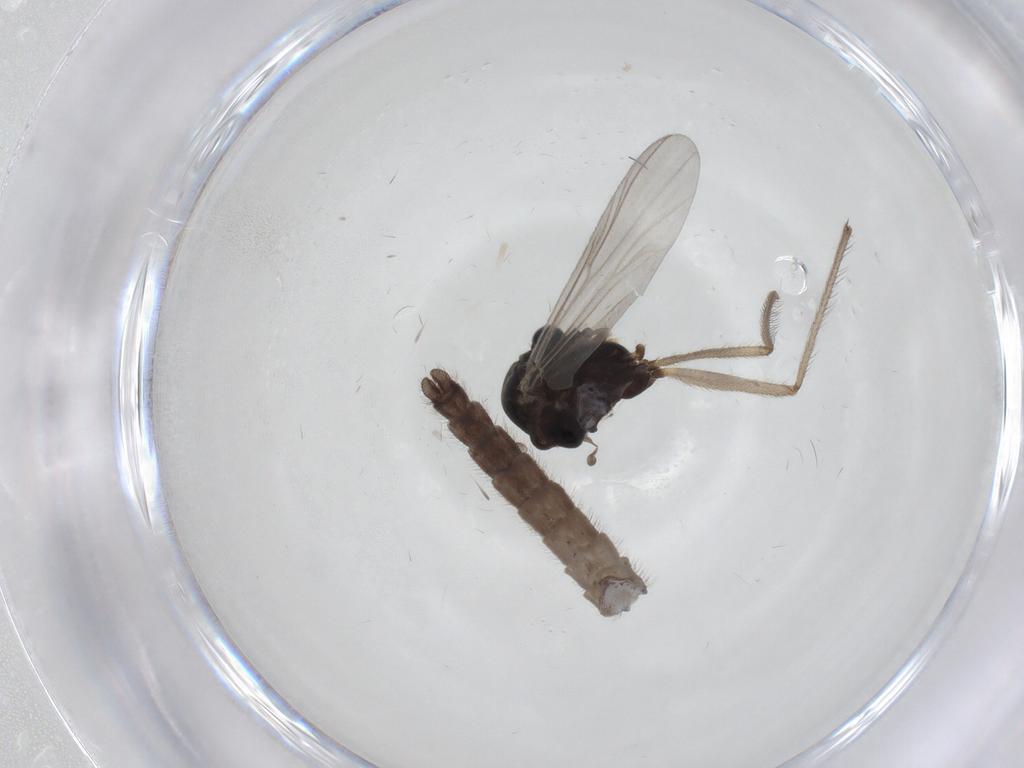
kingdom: Animalia
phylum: Arthropoda
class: Insecta
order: Diptera
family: Chironomidae
